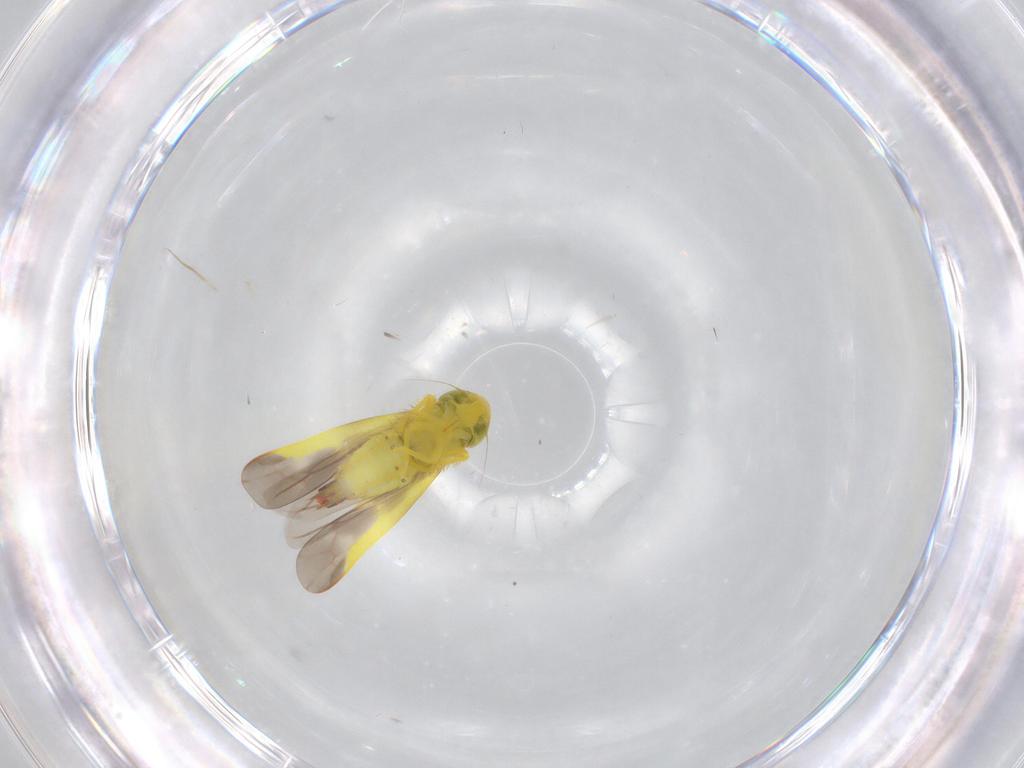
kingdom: Animalia
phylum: Arthropoda
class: Insecta
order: Hemiptera
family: Cicadellidae
